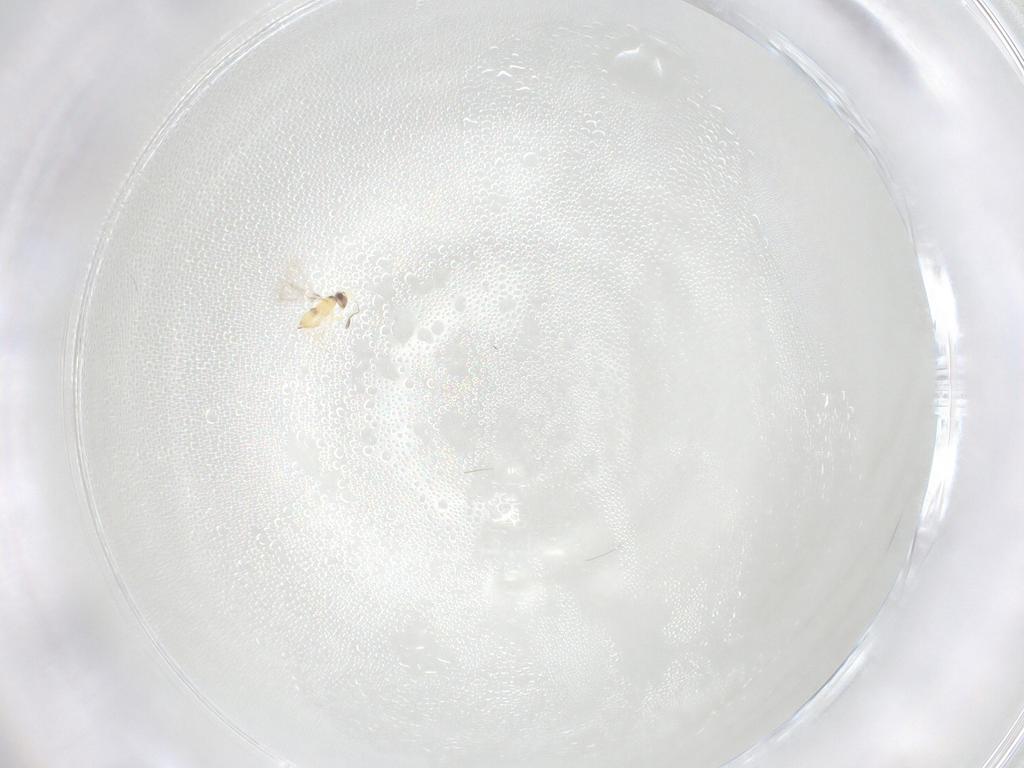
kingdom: Animalia
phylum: Arthropoda
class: Insecta
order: Hymenoptera
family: Mymaridae
